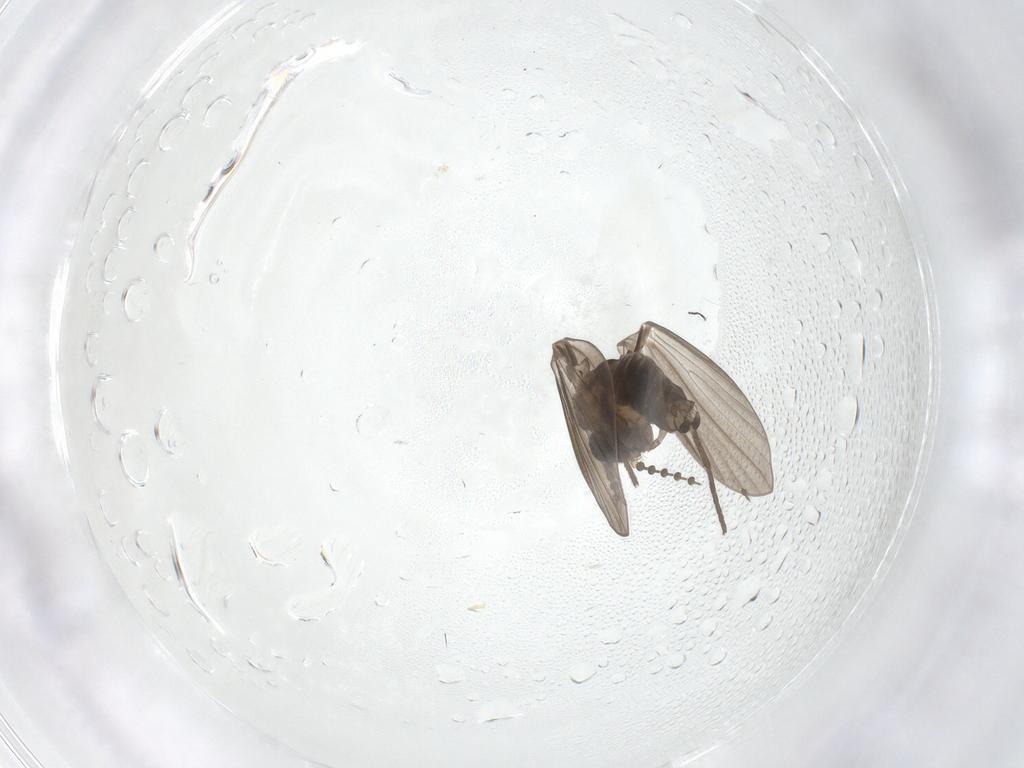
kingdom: Animalia
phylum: Arthropoda
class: Insecta
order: Diptera
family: Psychodidae
